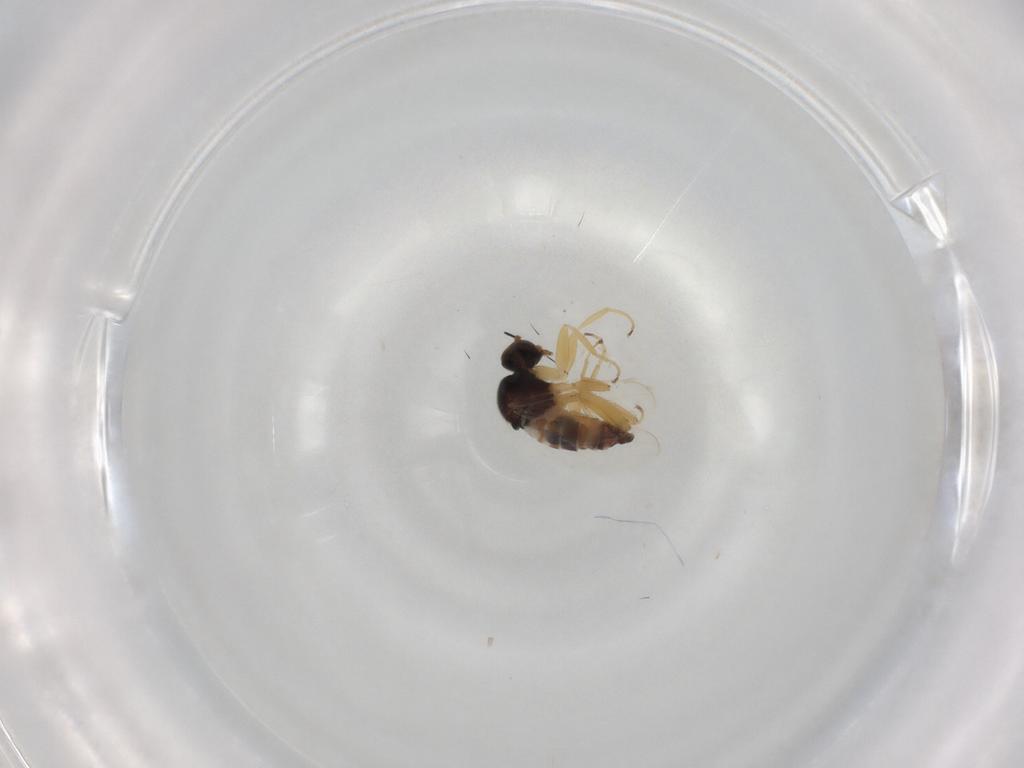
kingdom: Animalia
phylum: Arthropoda
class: Insecta
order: Diptera
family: Hybotidae
